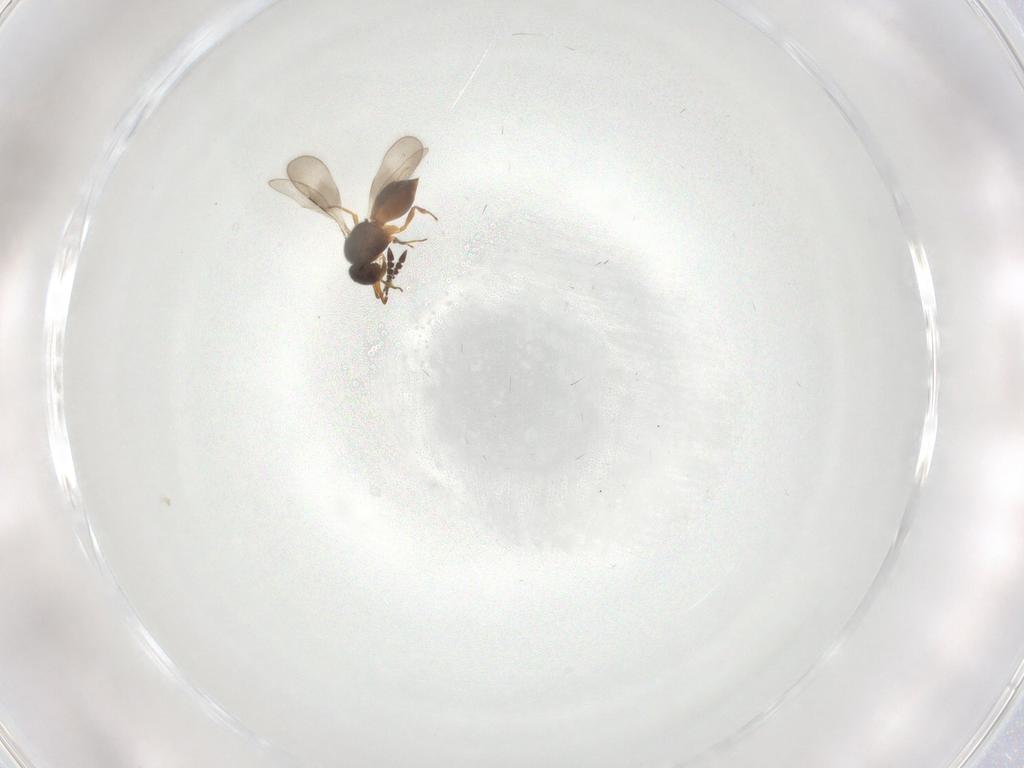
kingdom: Animalia
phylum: Arthropoda
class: Insecta
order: Hymenoptera
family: Ceraphronidae
